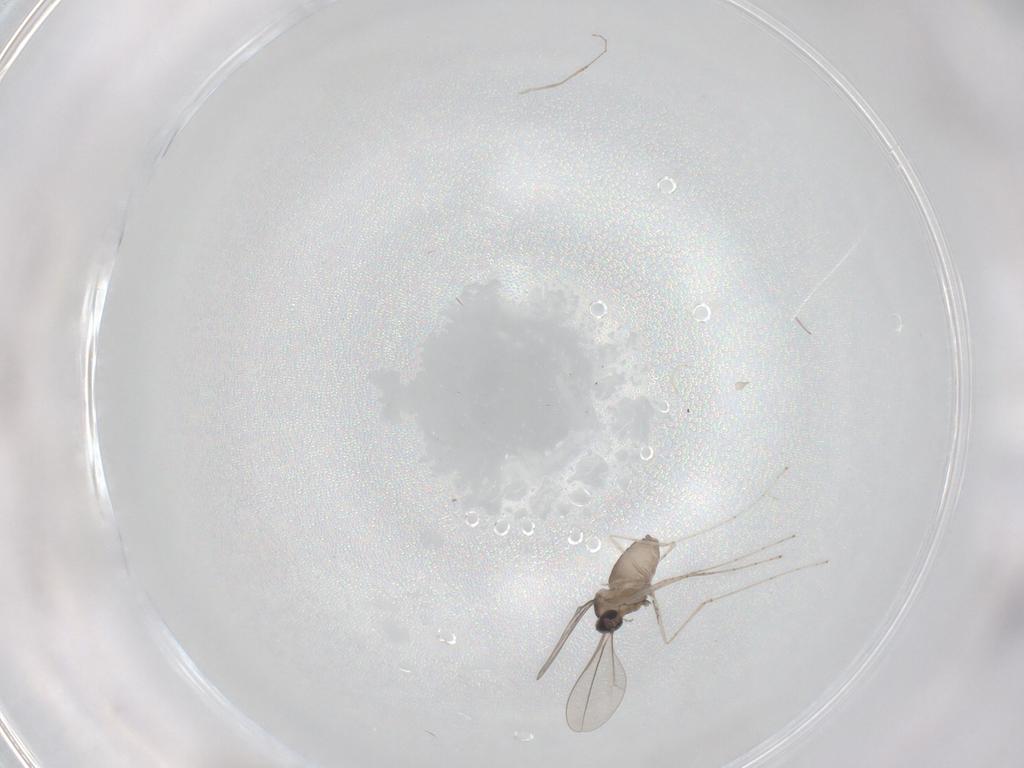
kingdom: Animalia
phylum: Arthropoda
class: Insecta
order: Diptera
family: Cecidomyiidae
